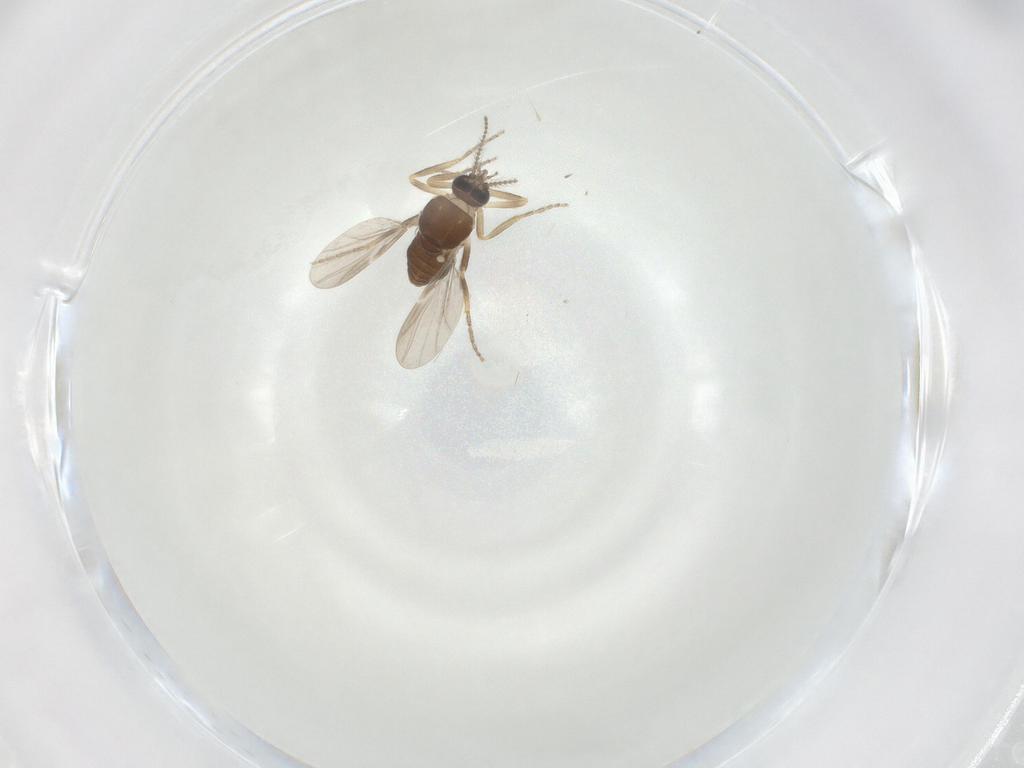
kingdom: Animalia
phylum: Arthropoda
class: Insecta
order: Diptera
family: Ceratopogonidae
